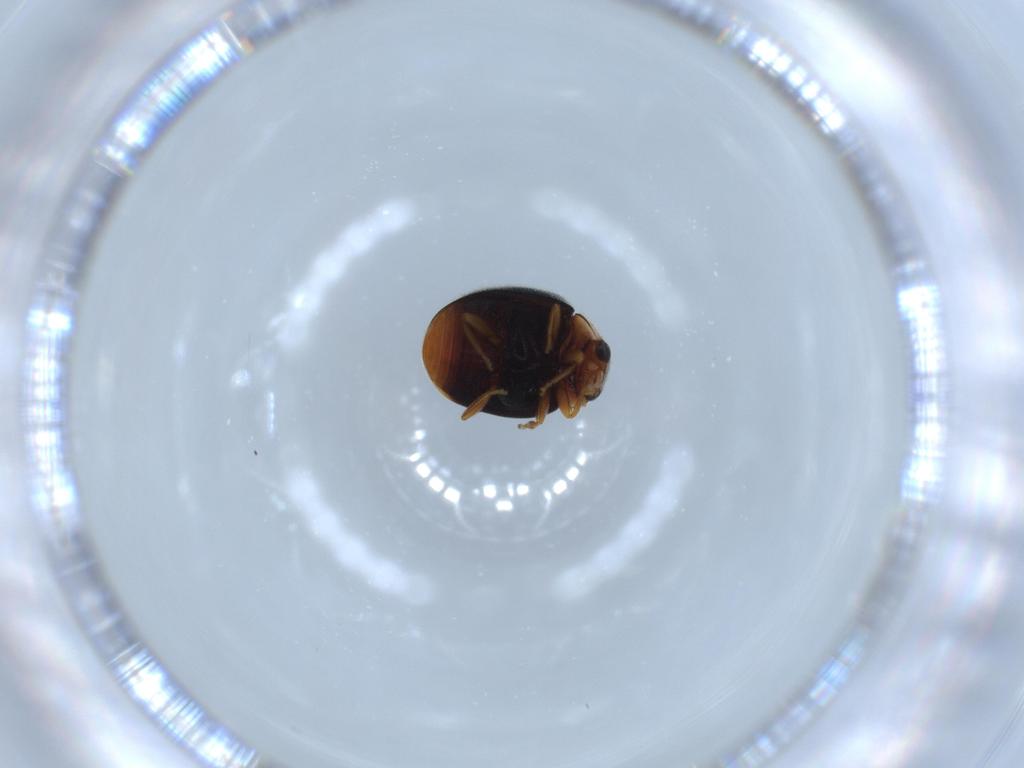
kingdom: Animalia
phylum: Arthropoda
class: Insecta
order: Coleoptera
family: Coccinellidae
